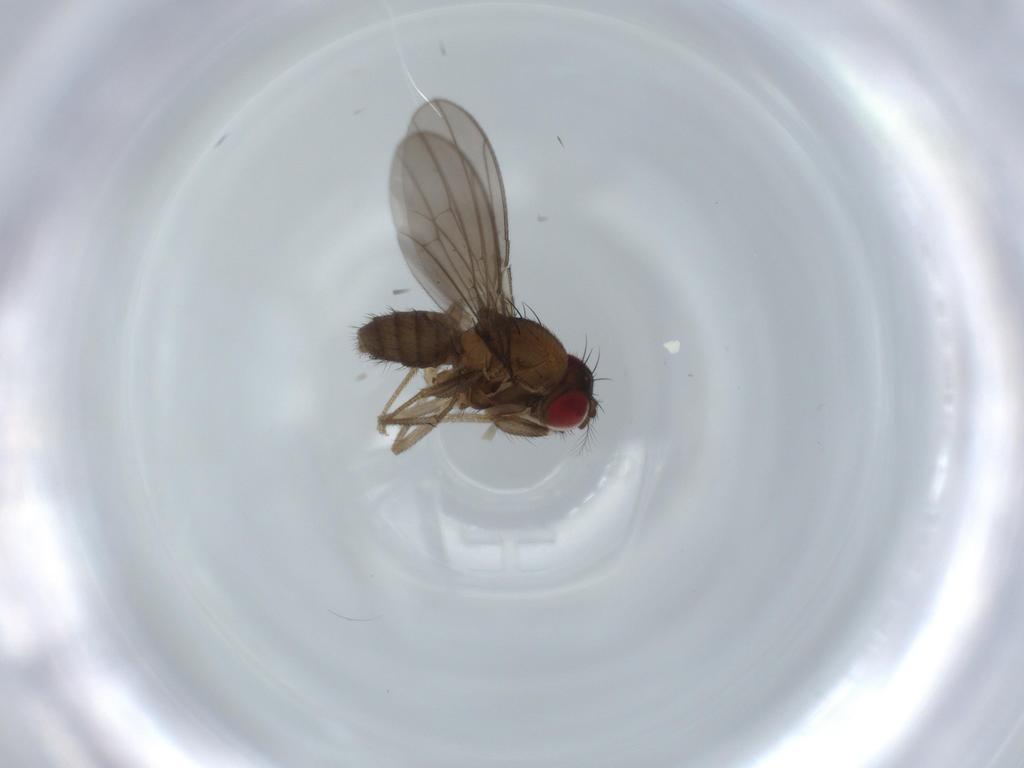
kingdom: Animalia
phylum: Arthropoda
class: Insecta
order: Diptera
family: Drosophilidae
